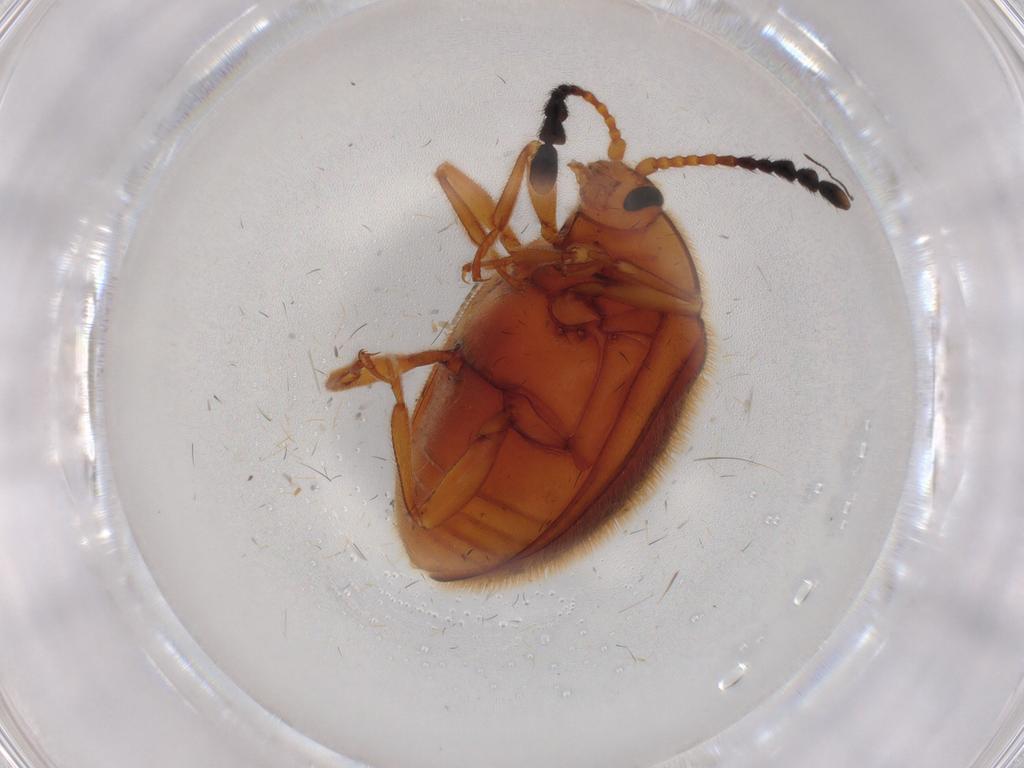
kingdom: Animalia
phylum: Arthropoda
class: Insecta
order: Coleoptera
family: Endomychidae
